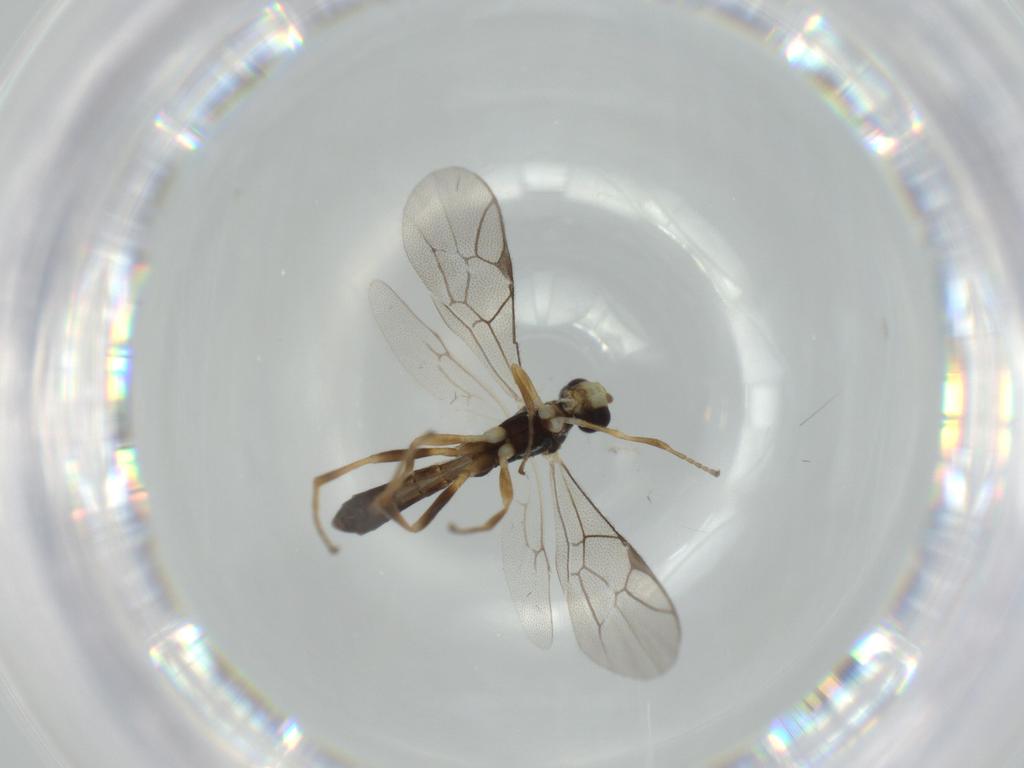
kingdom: Animalia
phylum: Arthropoda
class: Insecta
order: Hymenoptera
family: Ichneumonidae
